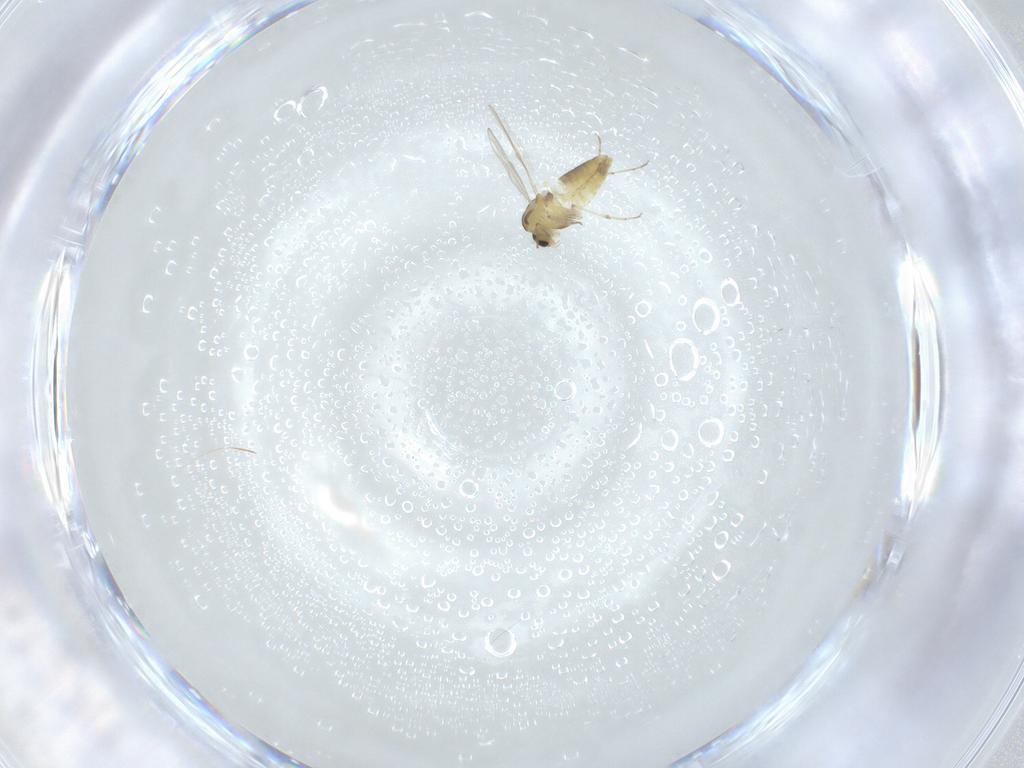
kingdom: Animalia
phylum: Arthropoda
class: Insecta
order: Diptera
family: Chironomidae
